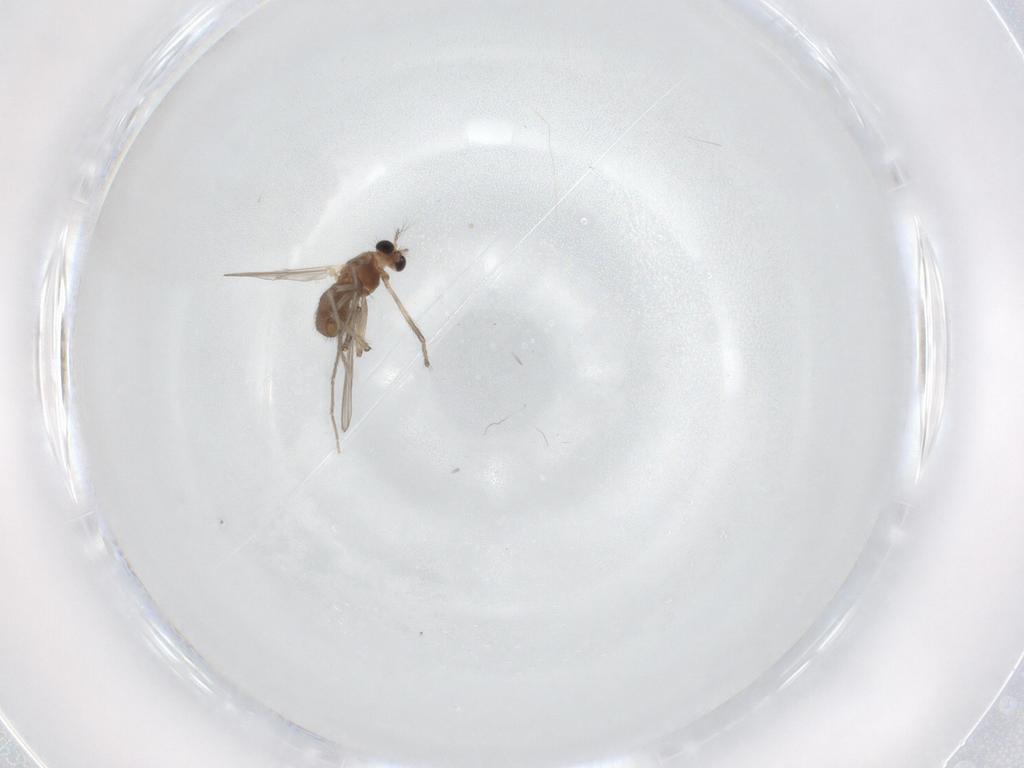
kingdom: Animalia
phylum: Arthropoda
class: Insecta
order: Diptera
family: Chironomidae
